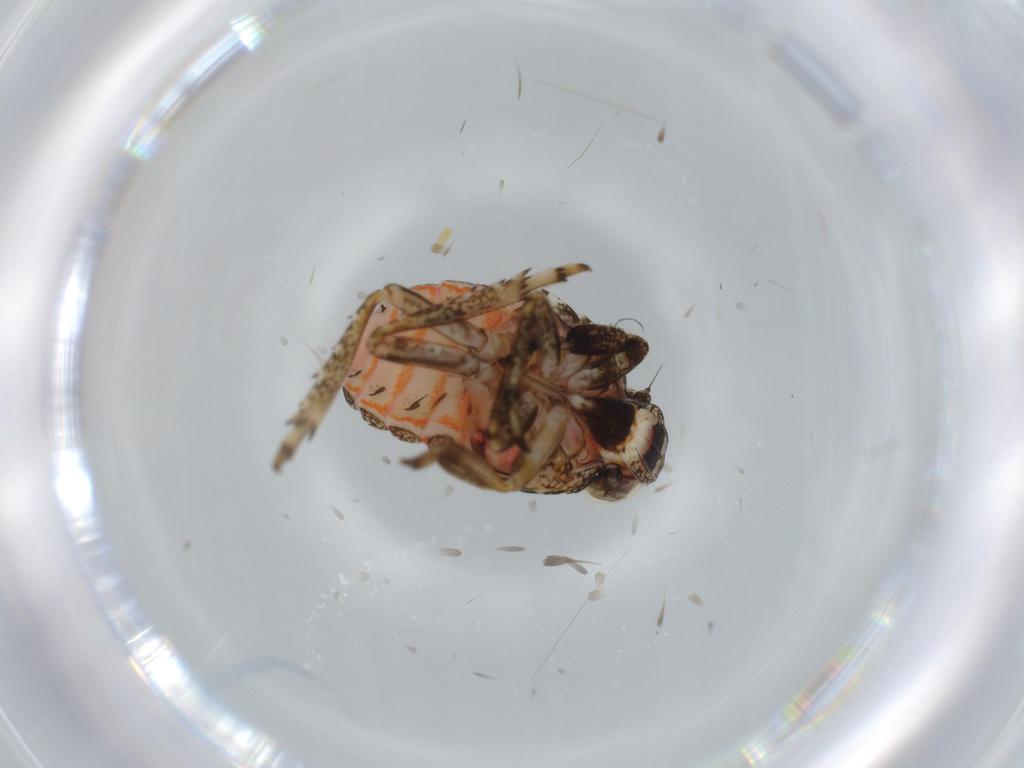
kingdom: Animalia
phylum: Arthropoda
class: Insecta
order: Hemiptera
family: Issidae
